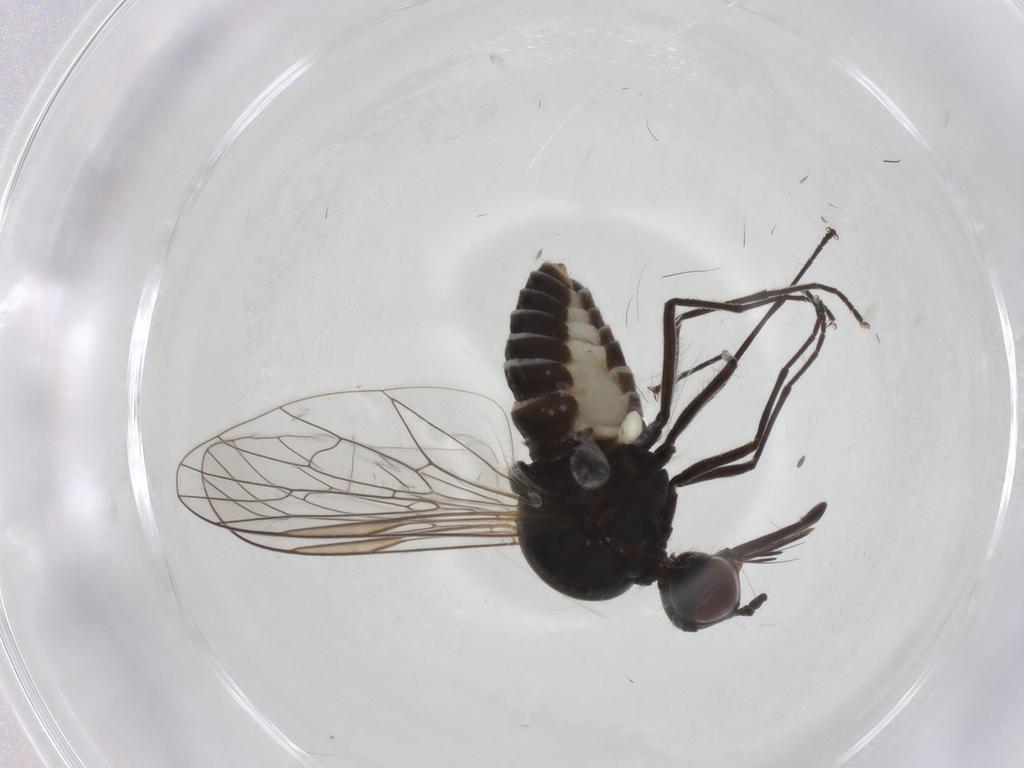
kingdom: Animalia
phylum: Arthropoda
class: Insecta
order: Diptera
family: Bombyliidae
